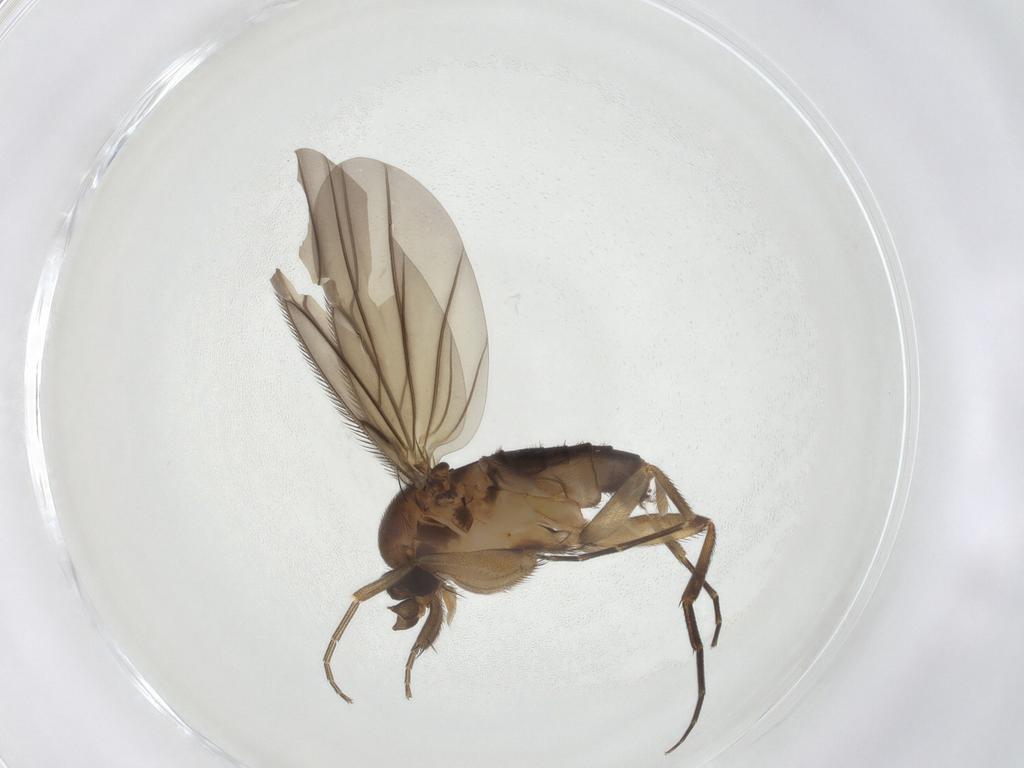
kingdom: Animalia
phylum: Arthropoda
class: Insecta
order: Diptera
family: Phoridae
